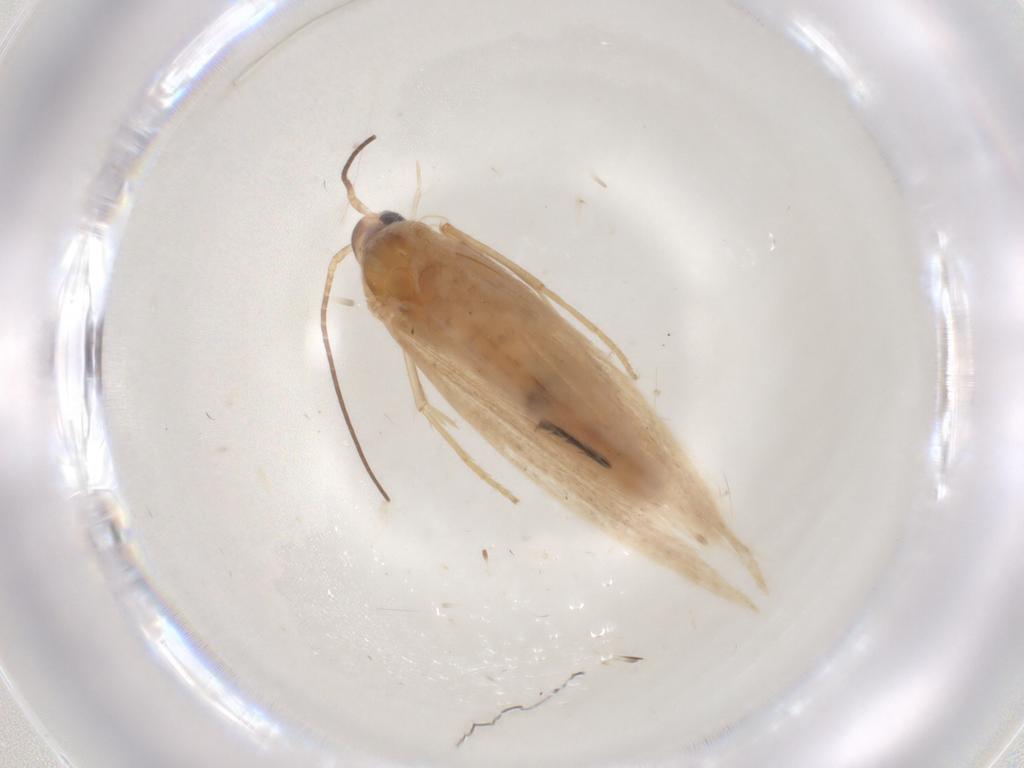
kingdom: Animalia
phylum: Arthropoda
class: Insecta
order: Lepidoptera
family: Coleophoridae
